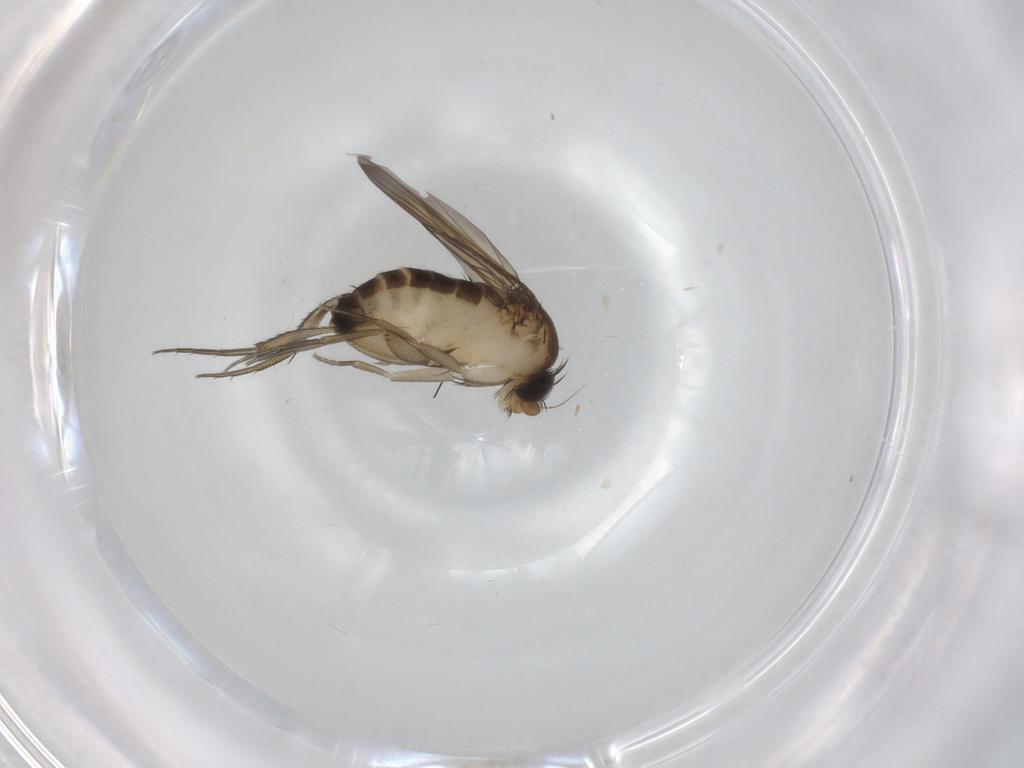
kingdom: Animalia
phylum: Arthropoda
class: Insecta
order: Diptera
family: Phoridae
